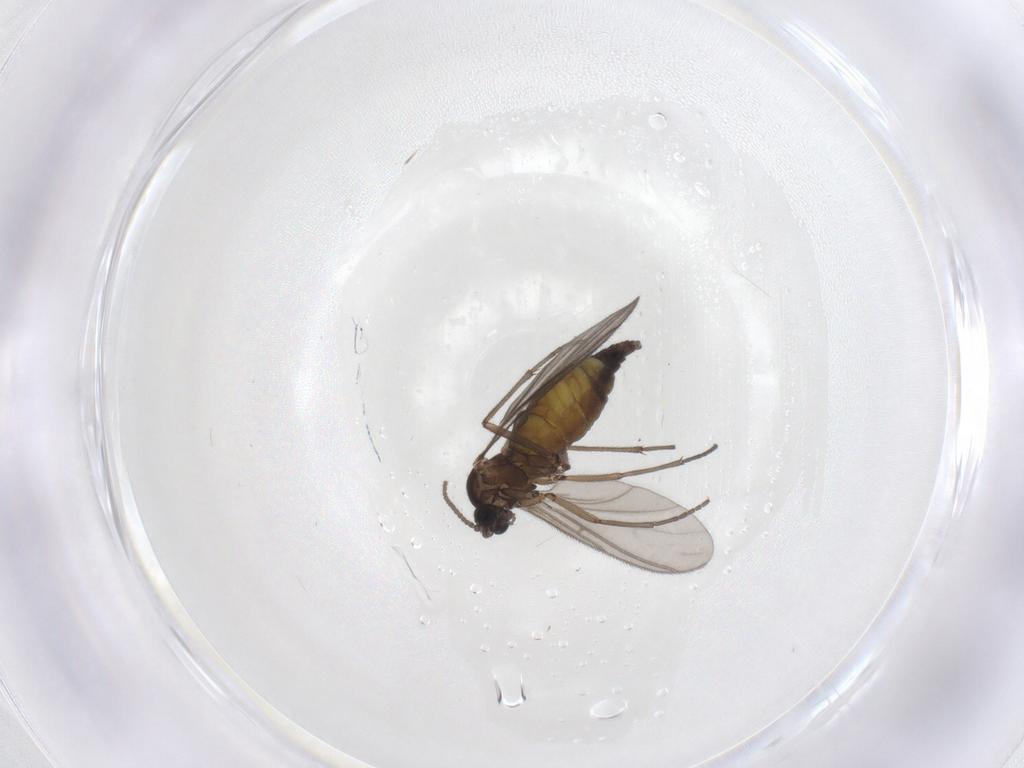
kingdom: Animalia
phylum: Arthropoda
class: Insecta
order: Diptera
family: Sciaridae
